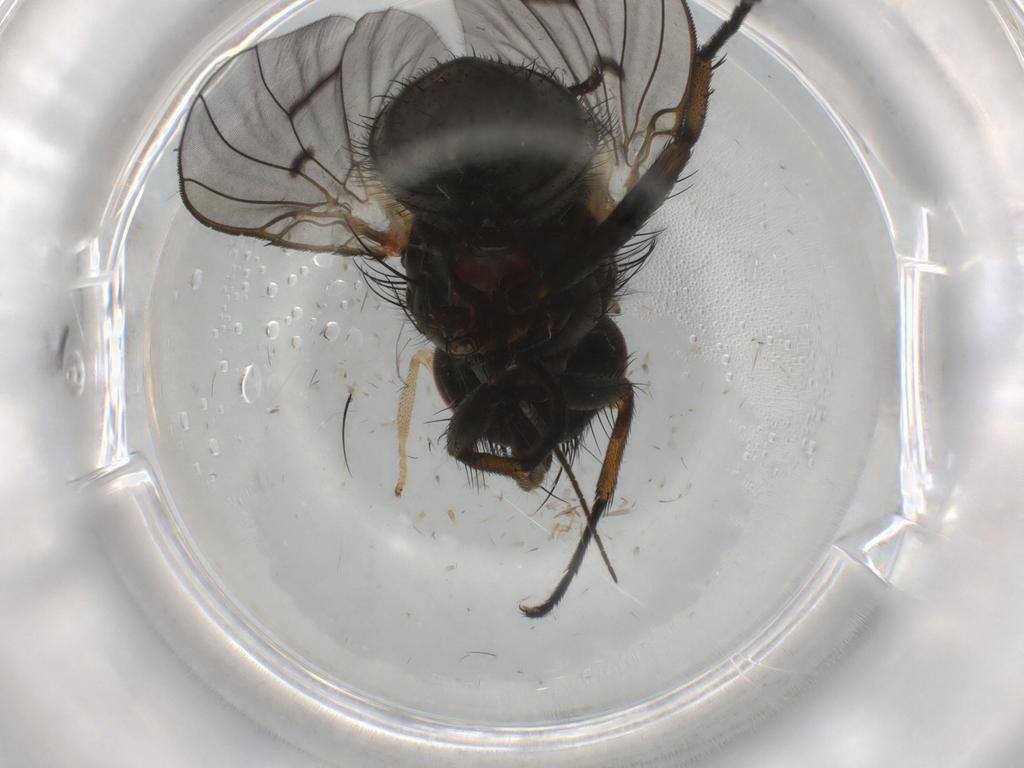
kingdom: Animalia
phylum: Arthropoda
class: Insecta
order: Diptera
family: Muscidae
